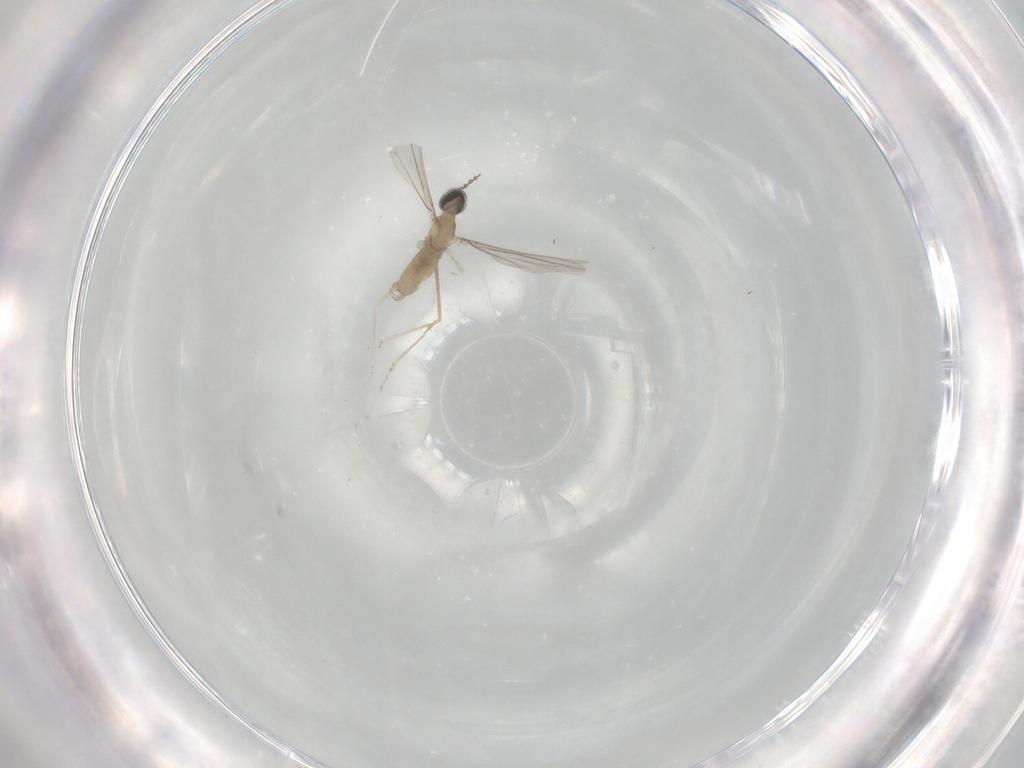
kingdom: Animalia
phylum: Arthropoda
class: Insecta
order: Diptera
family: Cecidomyiidae
